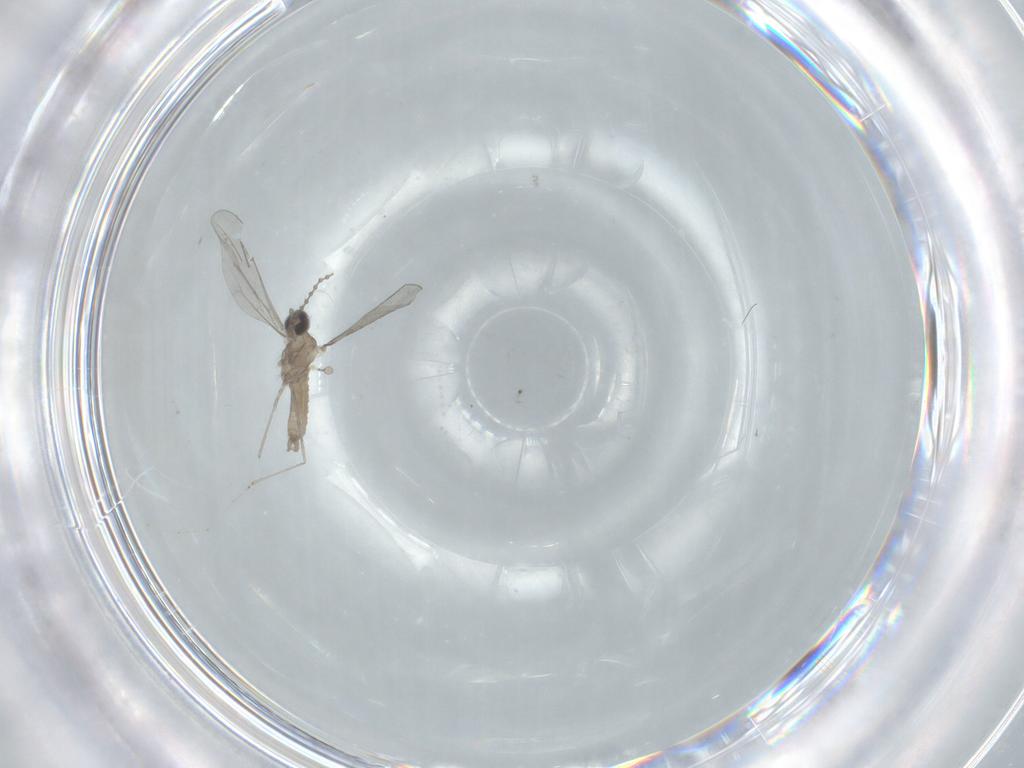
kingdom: Animalia
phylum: Arthropoda
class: Insecta
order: Diptera
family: Cecidomyiidae
